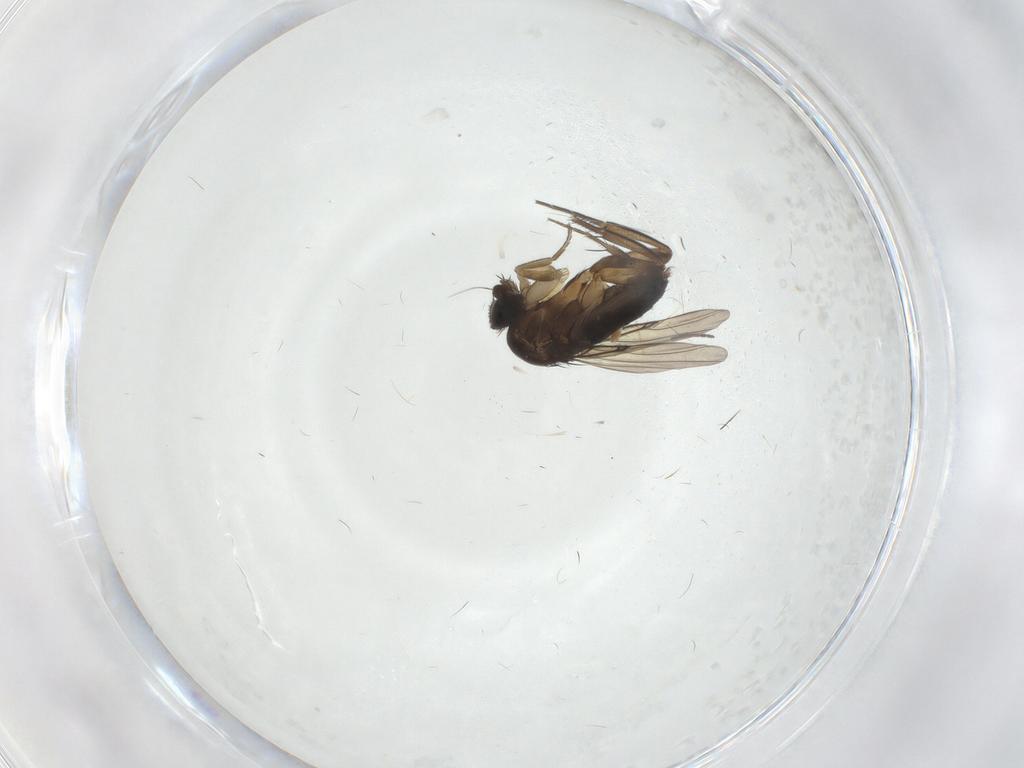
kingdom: Animalia
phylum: Arthropoda
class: Insecta
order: Diptera
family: Phoridae
